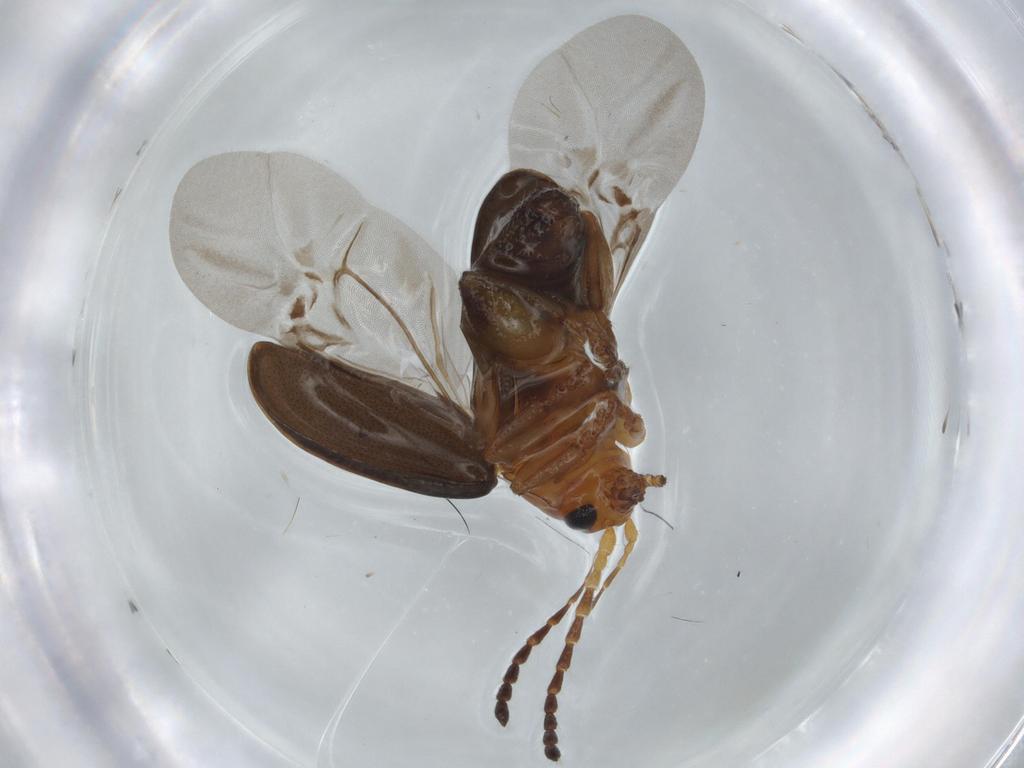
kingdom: Animalia
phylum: Arthropoda
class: Insecta
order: Coleoptera
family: Chrysomelidae
